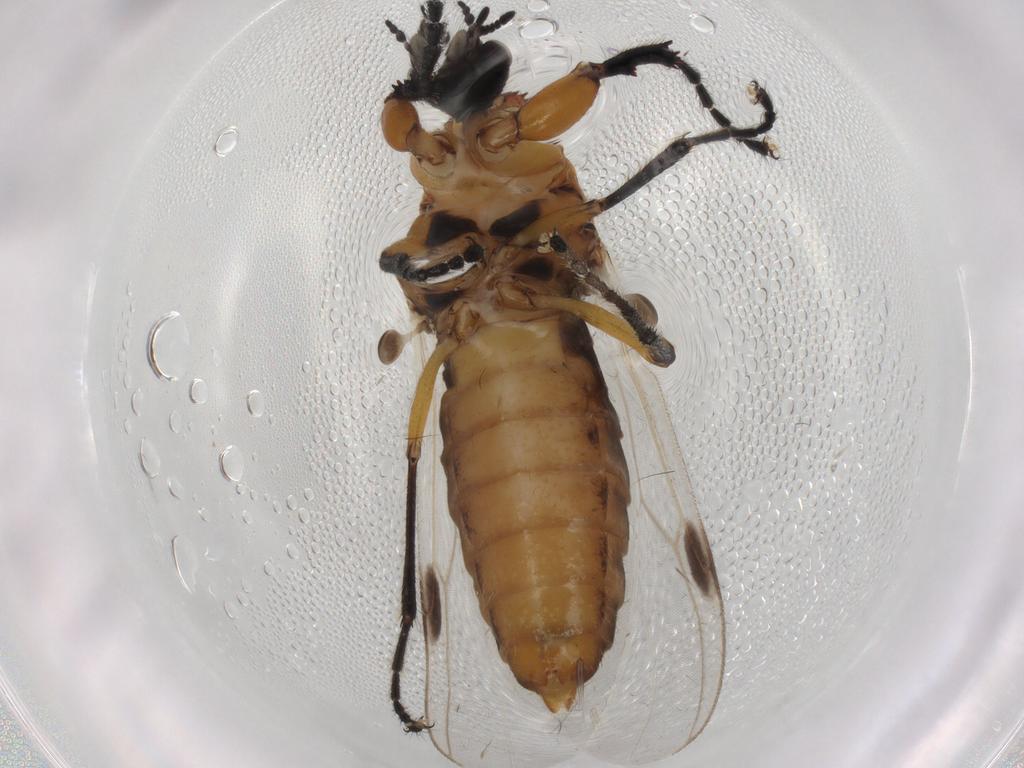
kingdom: Animalia
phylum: Arthropoda
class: Insecta
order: Diptera
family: Bibionidae
